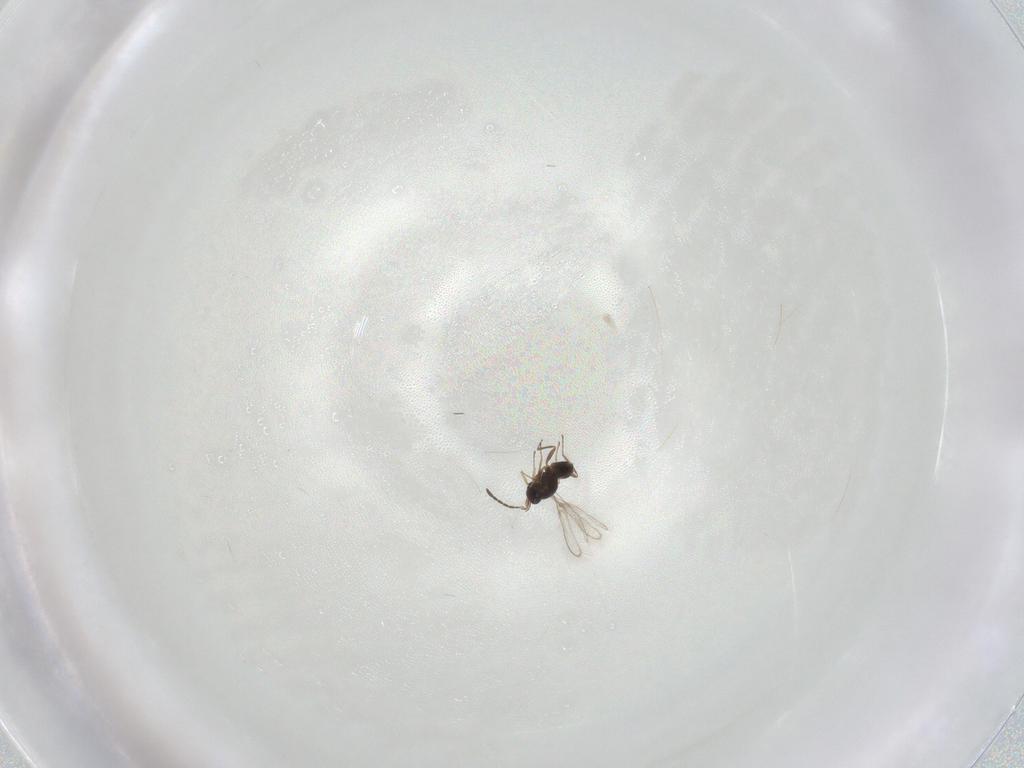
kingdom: Animalia
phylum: Arthropoda
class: Insecta
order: Hymenoptera
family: Mymaridae
